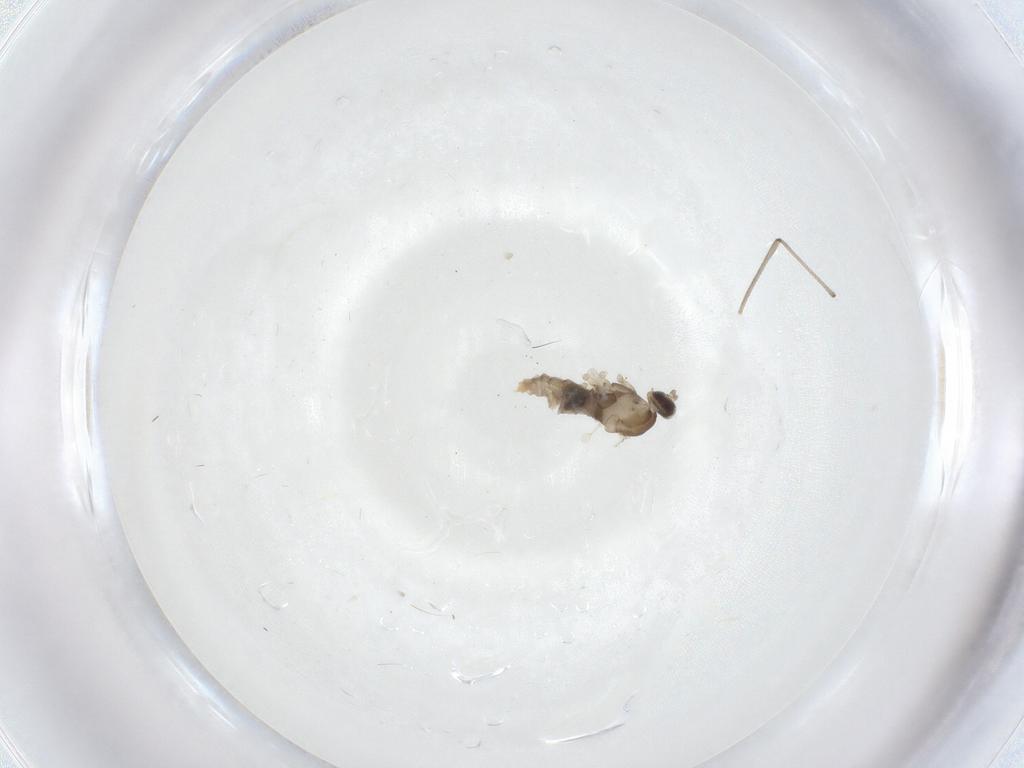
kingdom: Animalia
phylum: Arthropoda
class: Insecta
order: Diptera
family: Cecidomyiidae
